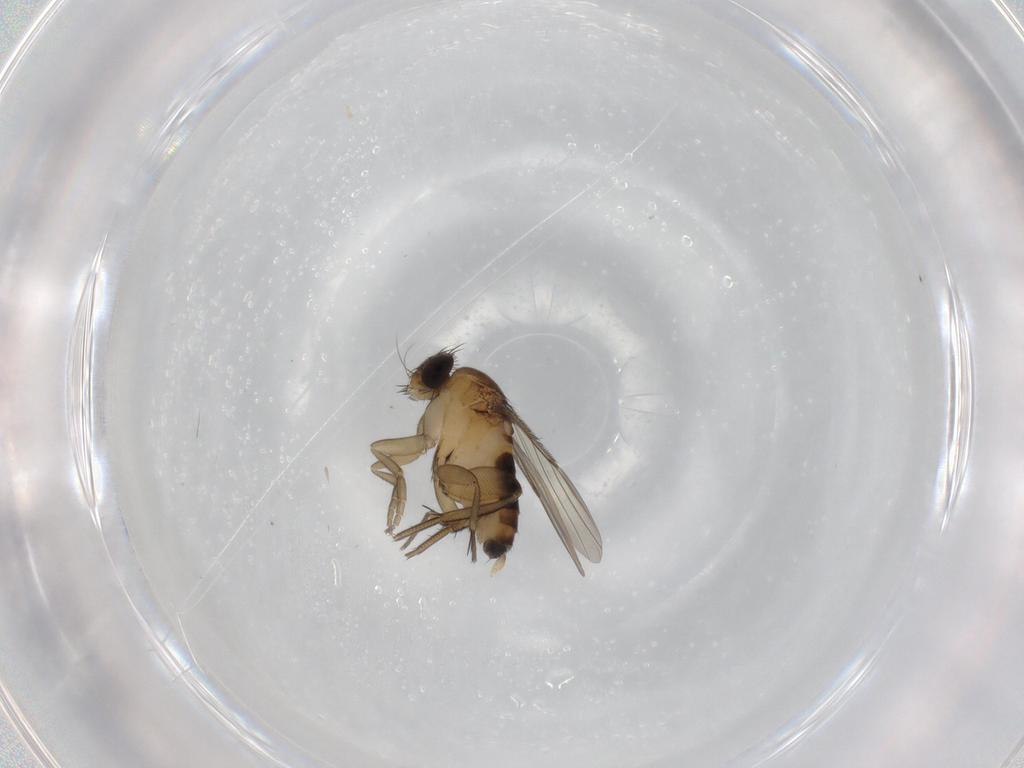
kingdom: Animalia
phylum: Arthropoda
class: Insecta
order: Diptera
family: Phoridae
